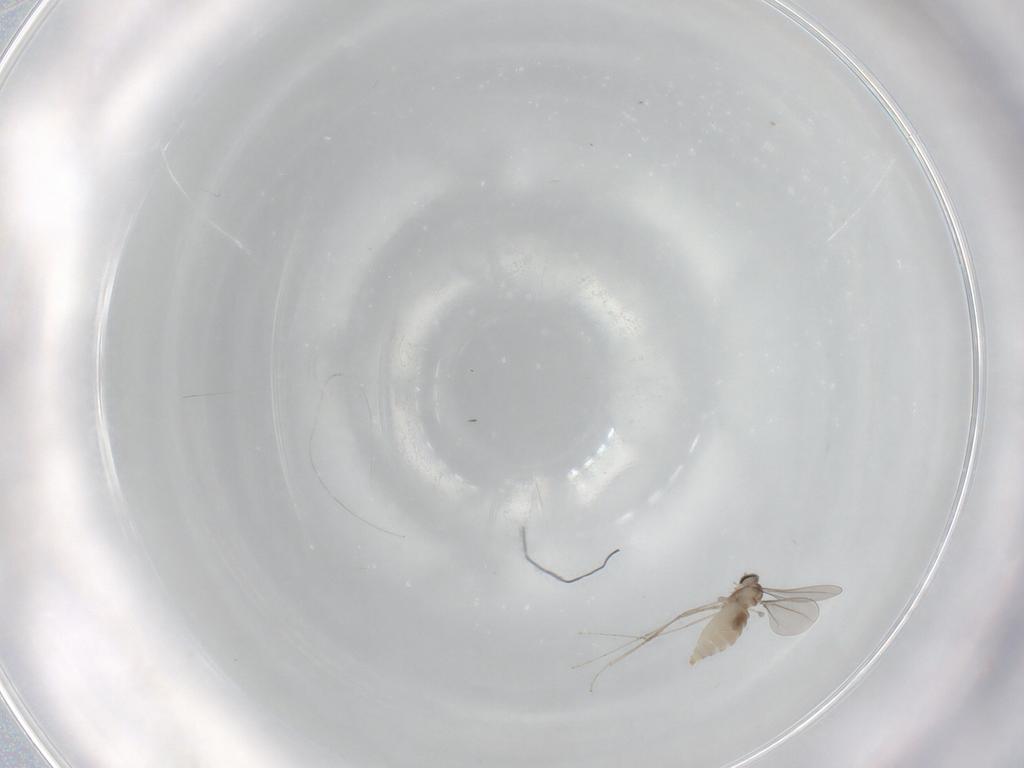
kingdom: Animalia
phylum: Arthropoda
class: Insecta
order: Diptera
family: Cecidomyiidae
